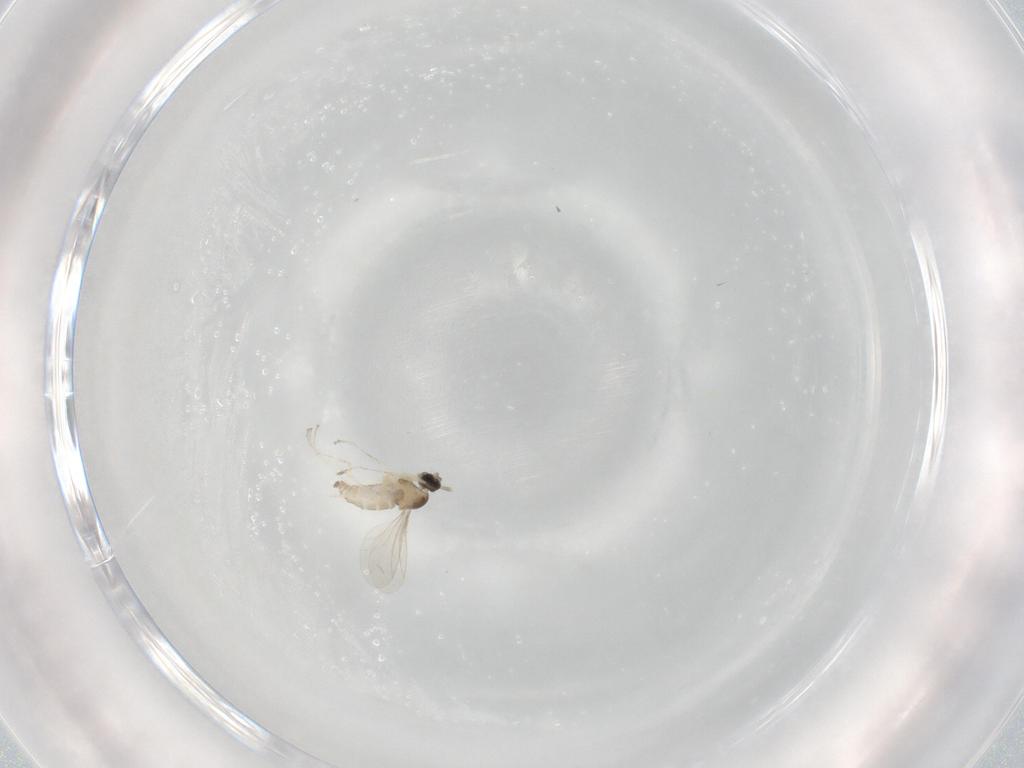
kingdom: Animalia
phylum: Arthropoda
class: Insecta
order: Diptera
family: Cecidomyiidae
